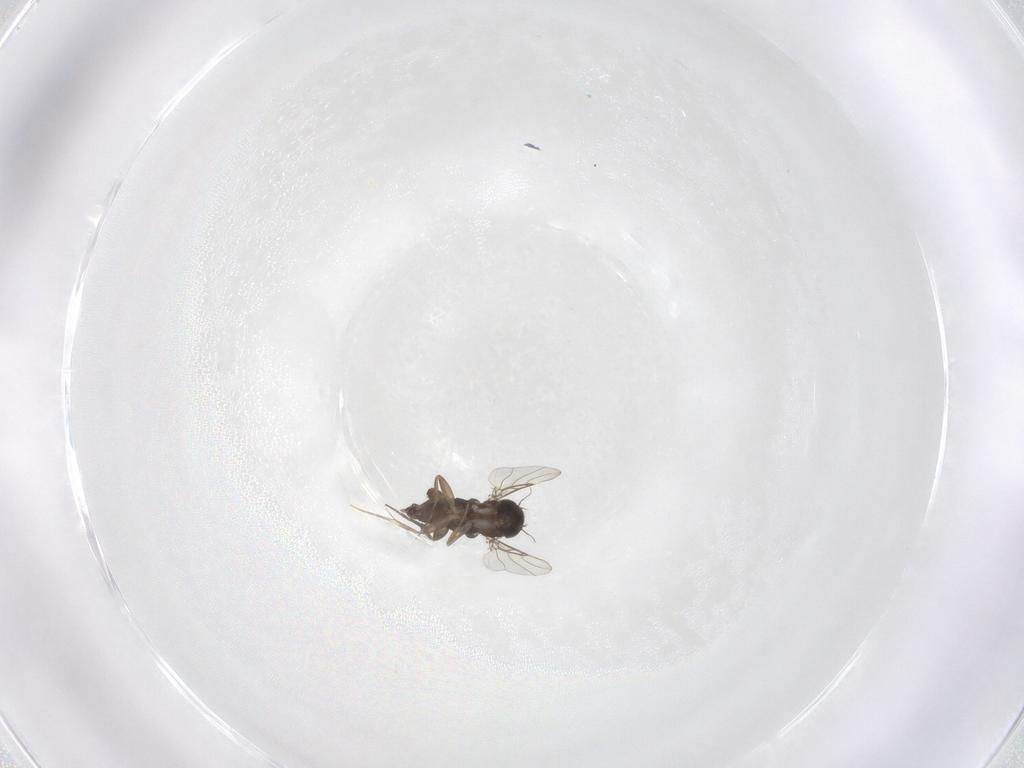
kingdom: Animalia
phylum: Arthropoda
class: Insecta
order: Diptera
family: Phoridae
